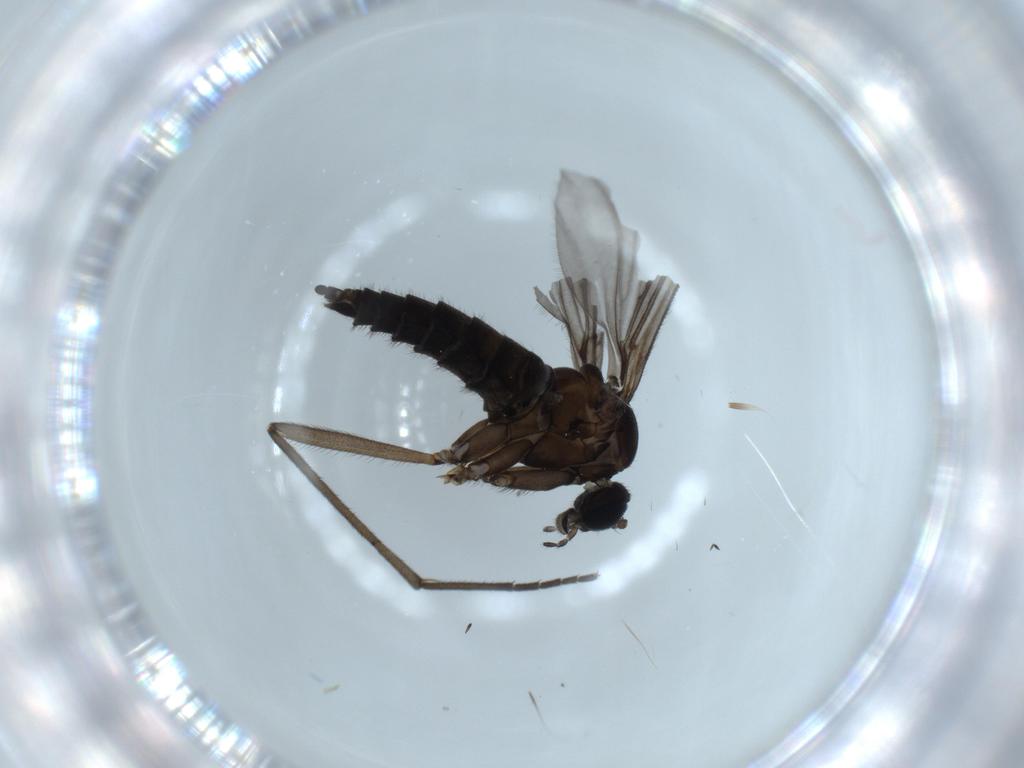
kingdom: Animalia
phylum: Arthropoda
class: Insecta
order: Diptera
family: Sciaridae
